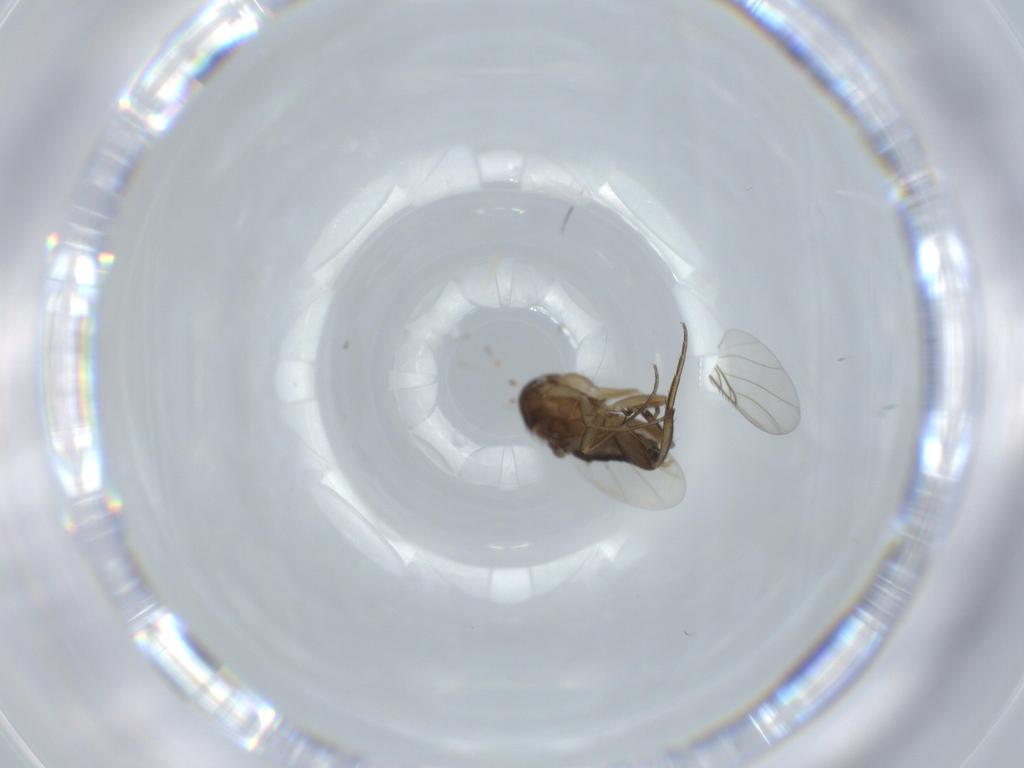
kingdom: Animalia
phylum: Arthropoda
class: Insecta
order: Diptera
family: Phoridae
